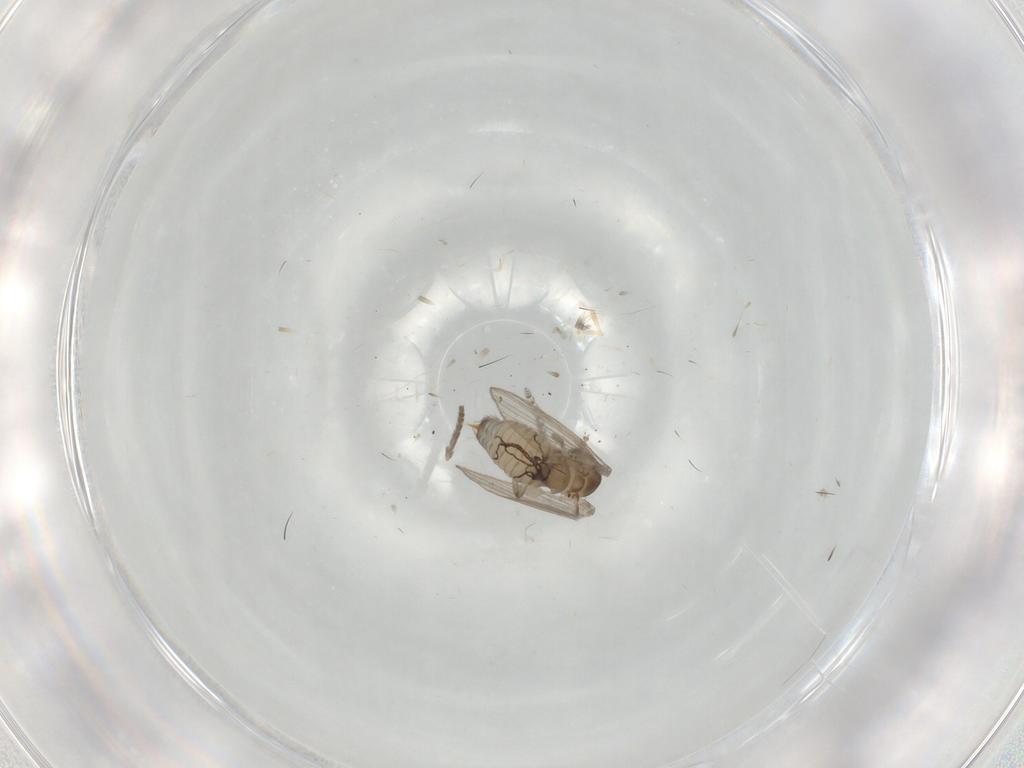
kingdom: Animalia
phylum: Arthropoda
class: Insecta
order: Diptera
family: Psychodidae
